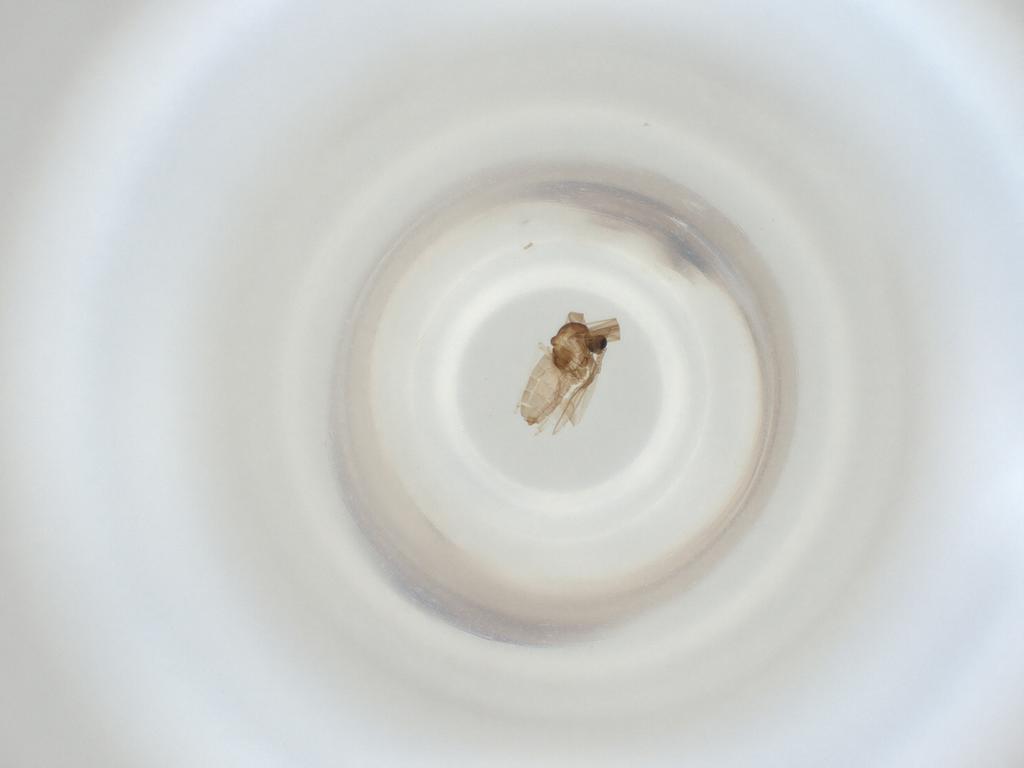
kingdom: Animalia
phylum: Arthropoda
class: Insecta
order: Diptera
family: Cecidomyiidae
